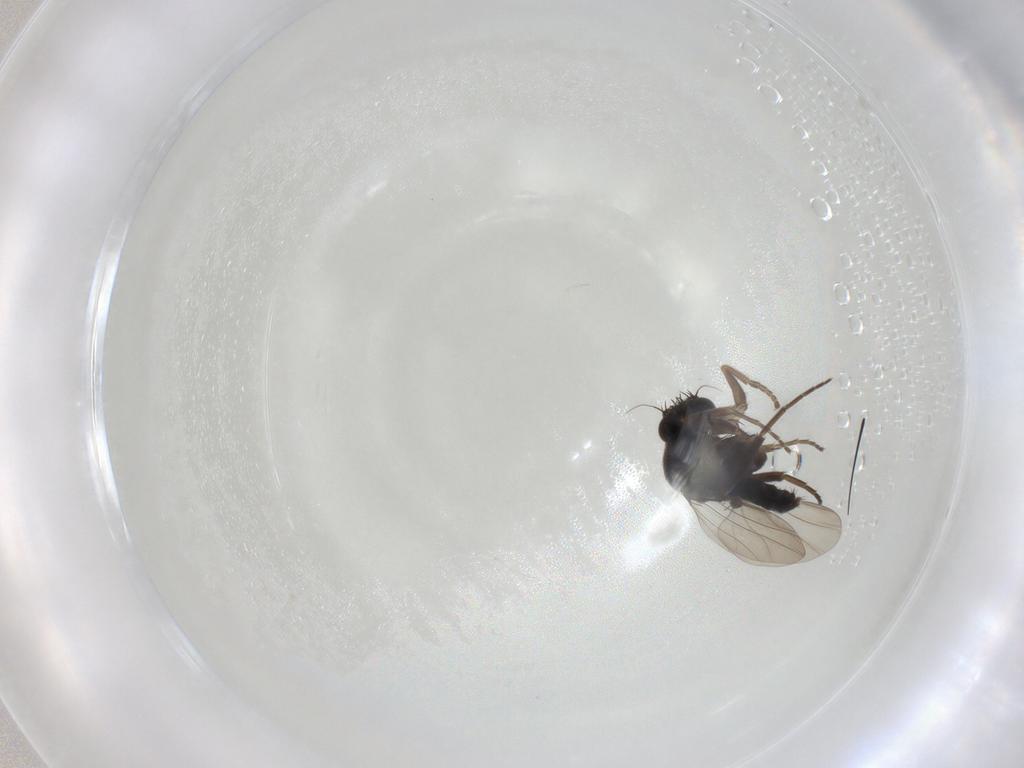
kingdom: Animalia
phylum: Arthropoda
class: Insecta
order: Diptera
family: Phoridae
